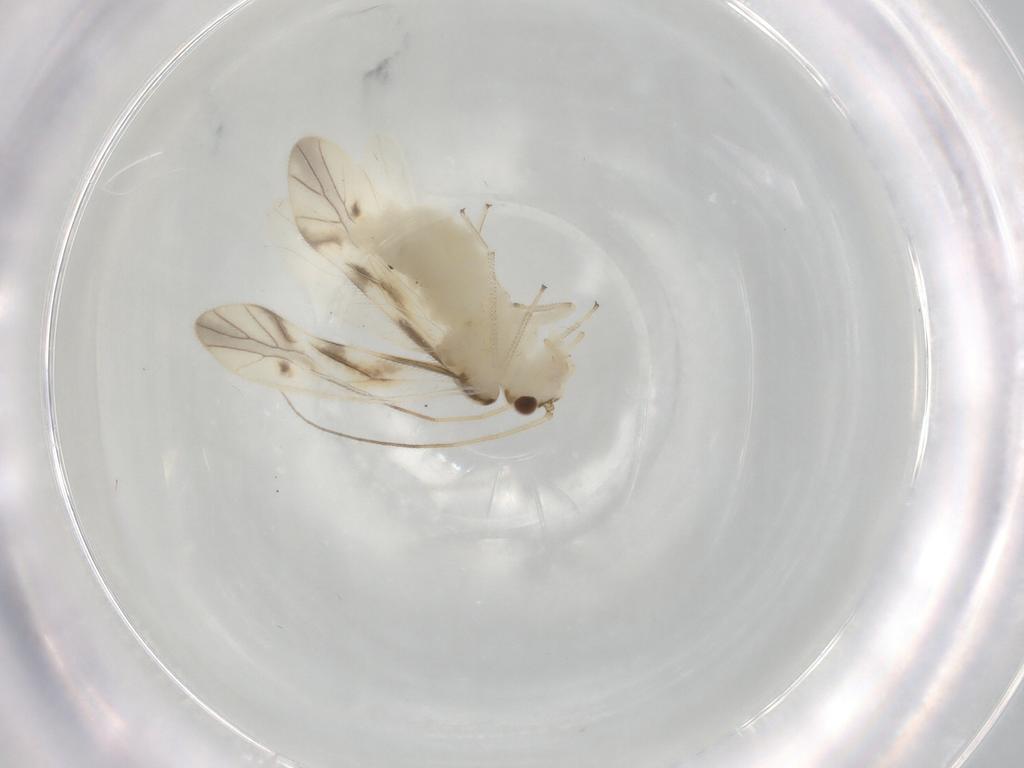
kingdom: Animalia
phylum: Arthropoda
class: Insecta
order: Psocodea
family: Caeciliusidae
